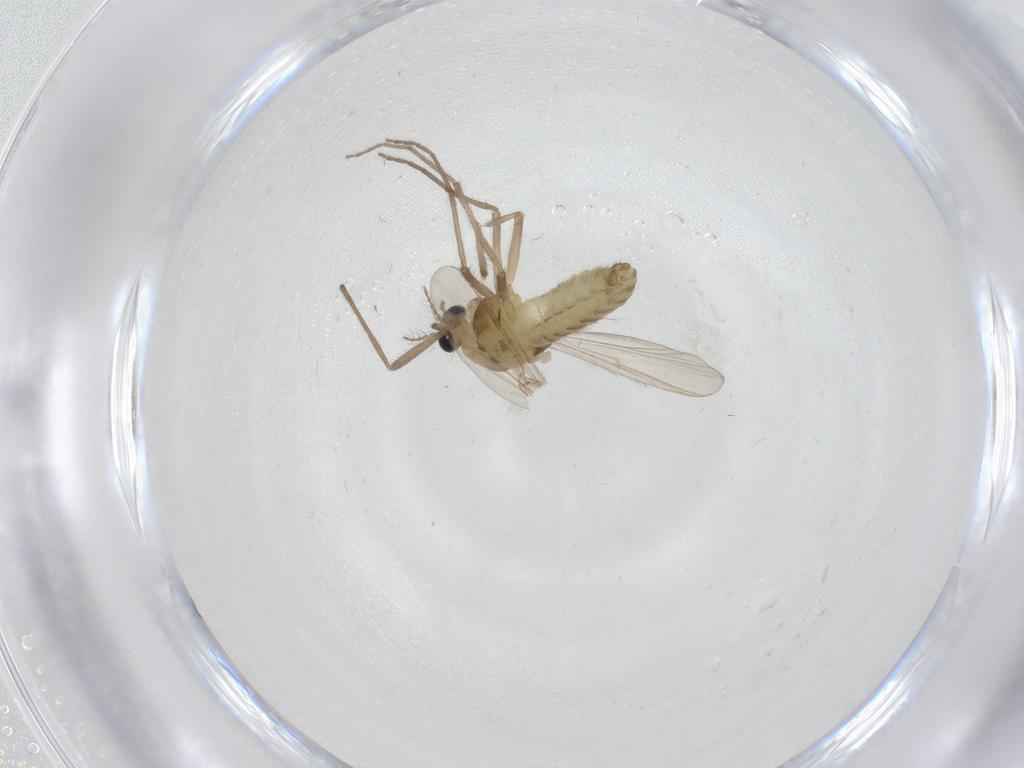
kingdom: Animalia
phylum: Arthropoda
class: Insecta
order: Diptera
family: Chironomidae
